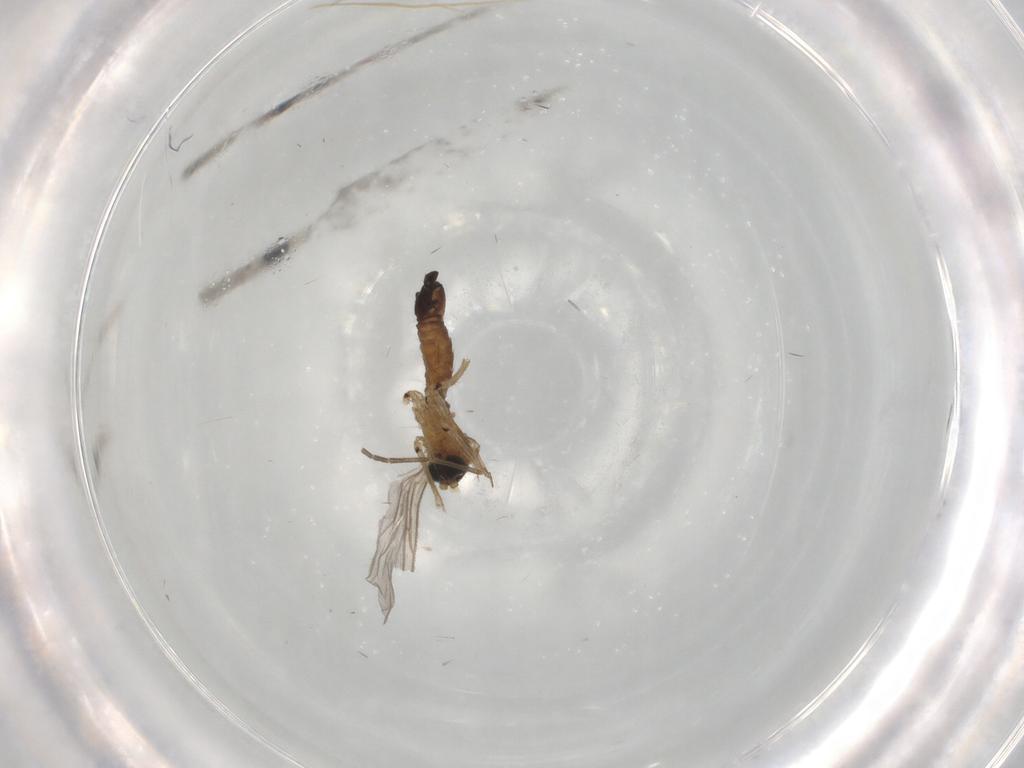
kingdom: Animalia
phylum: Arthropoda
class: Insecta
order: Diptera
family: Sciaridae
